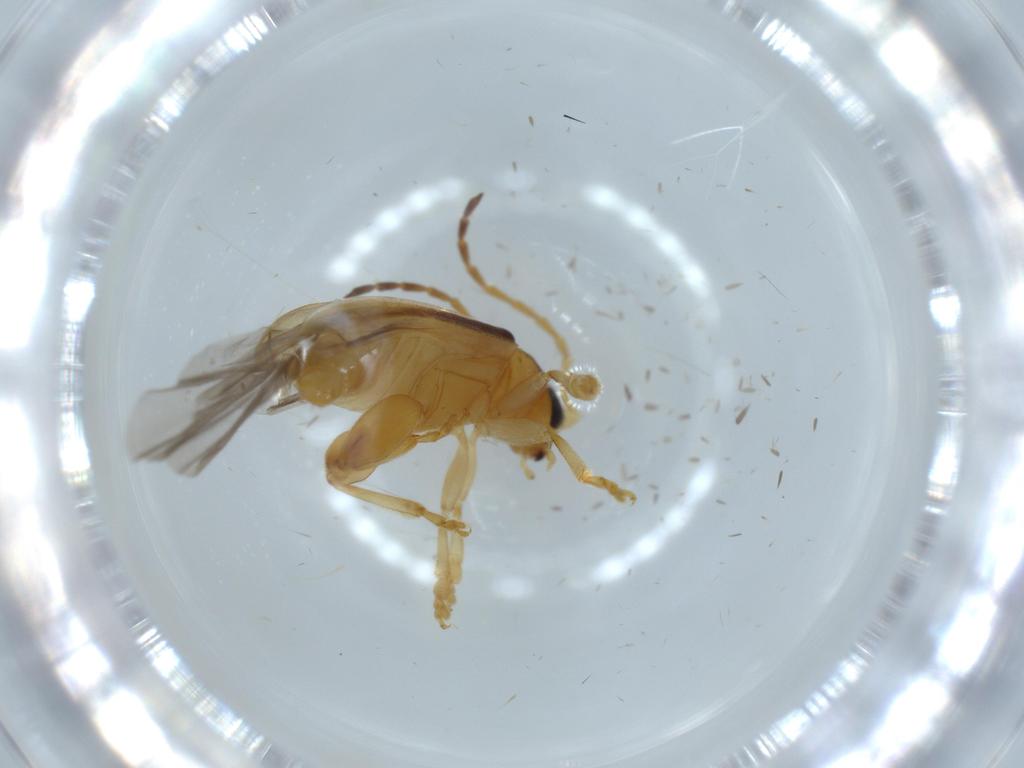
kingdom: Animalia
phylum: Arthropoda
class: Insecta
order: Coleoptera
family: Chrysomelidae
